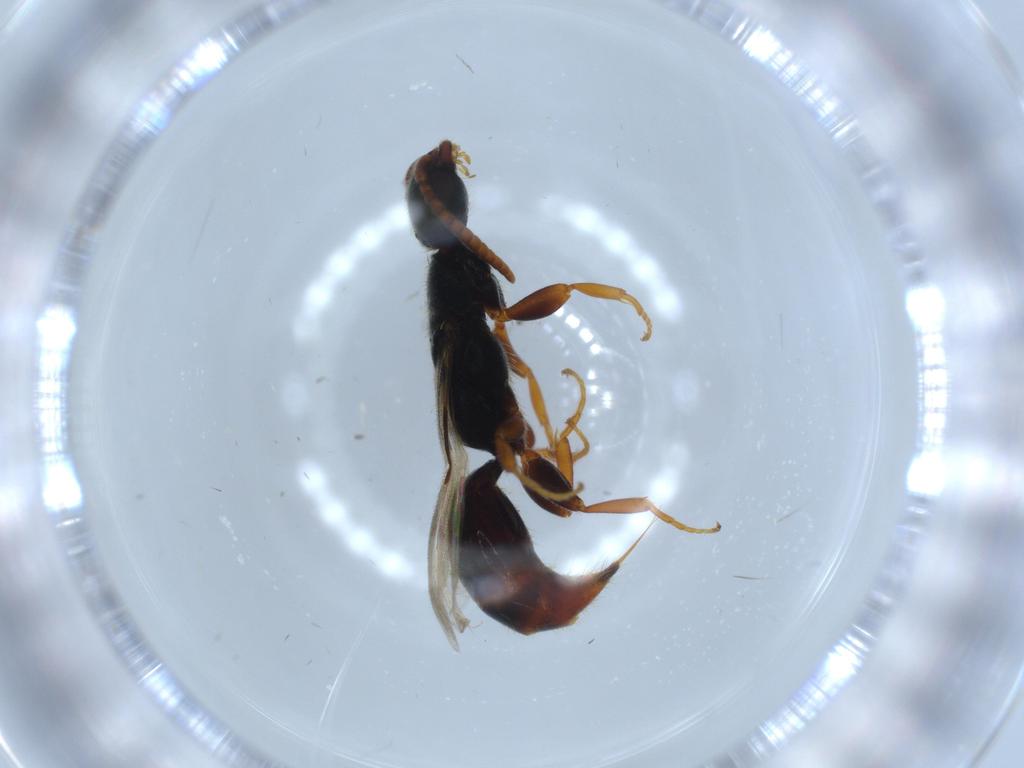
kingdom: Animalia
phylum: Arthropoda
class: Insecta
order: Hymenoptera
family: Bethylidae
